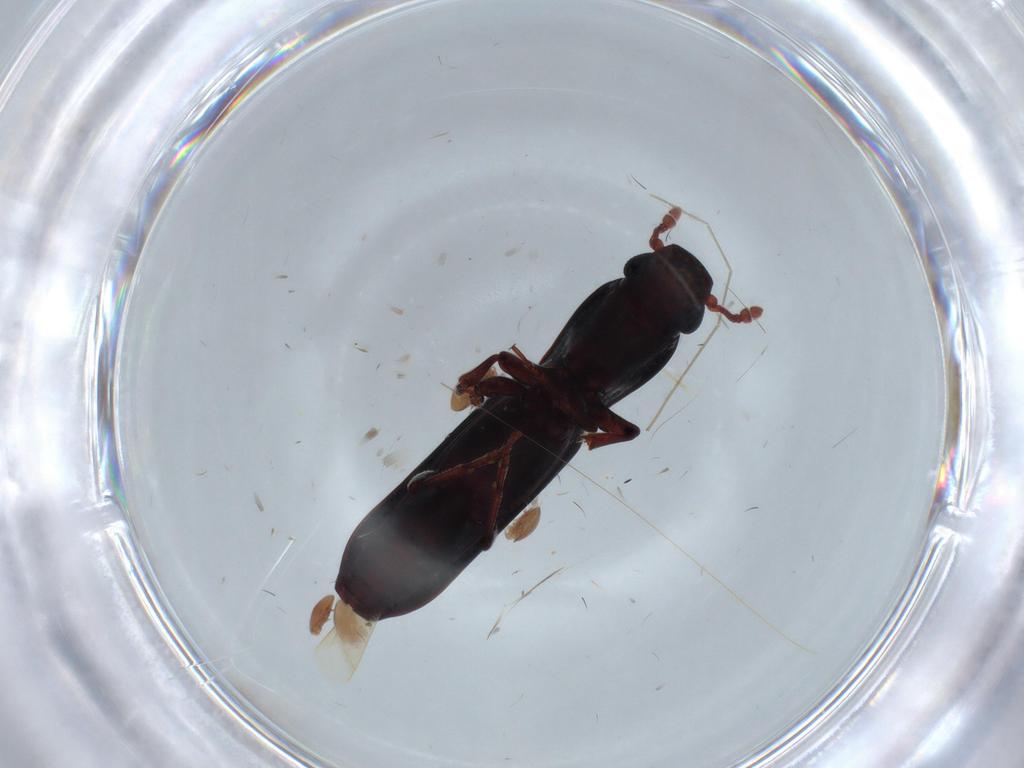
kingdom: Animalia
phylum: Arthropoda
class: Insecta
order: Coleoptera
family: Bothrideridae
